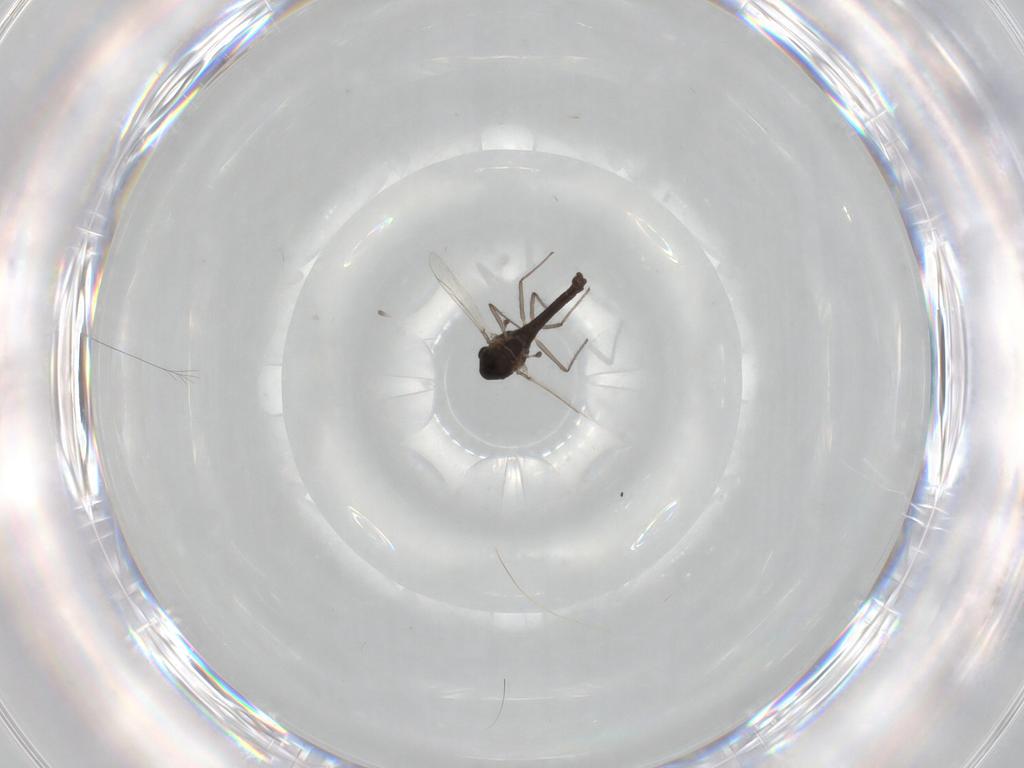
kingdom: Animalia
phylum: Arthropoda
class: Insecta
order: Diptera
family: Chironomidae
